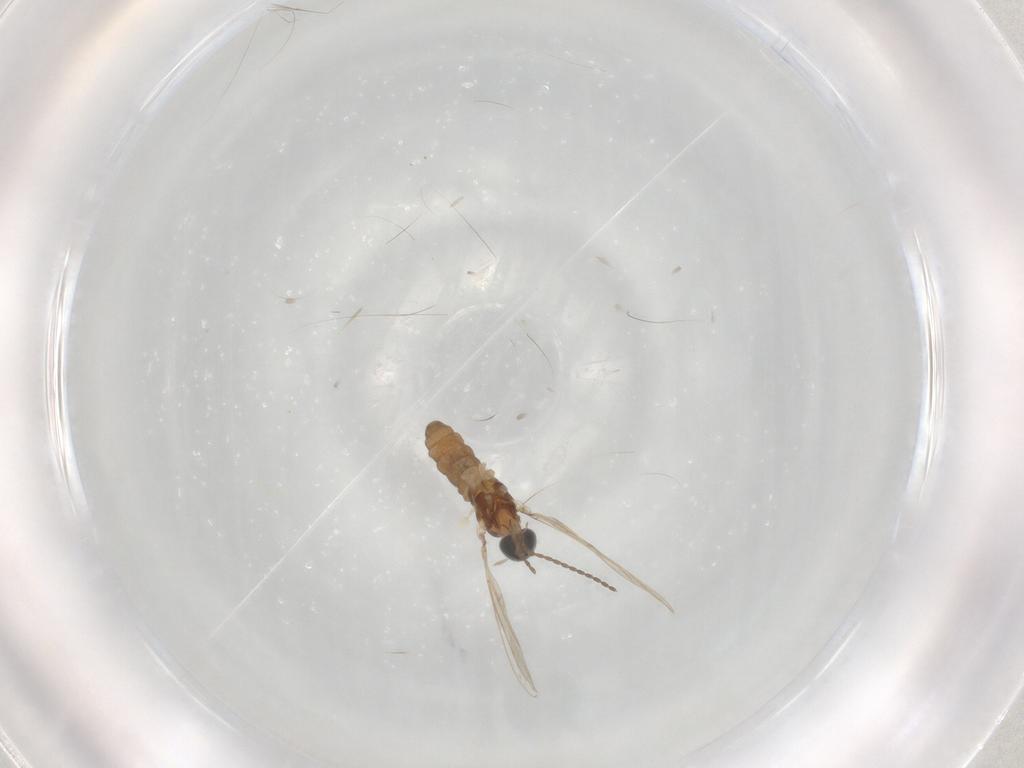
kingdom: Animalia
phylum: Arthropoda
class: Insecta
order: Diptera
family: Cecidomyiidae
